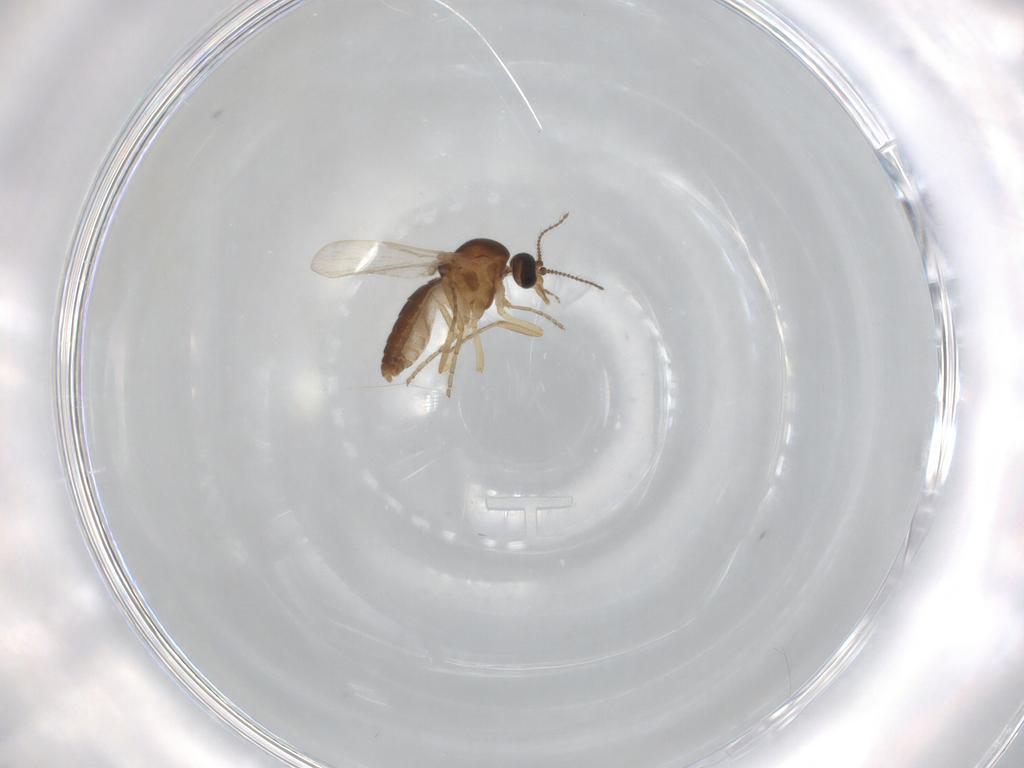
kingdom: Animalia
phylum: Arthropoda
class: Insecta
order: Diptera
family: Ceratopogonidae
